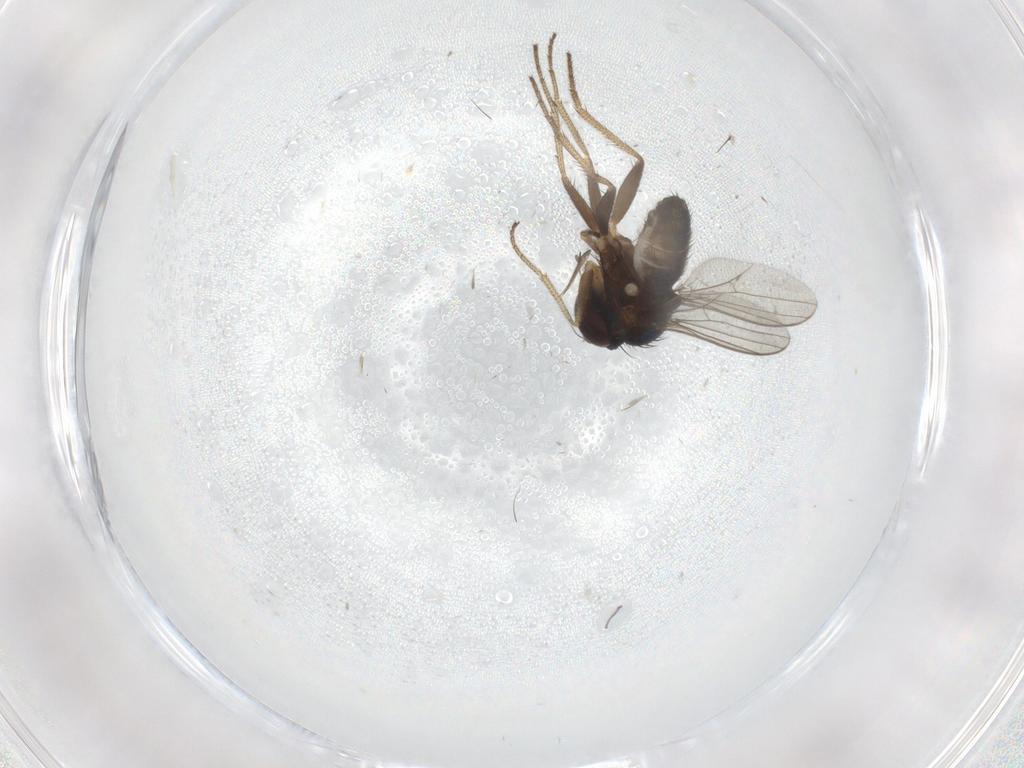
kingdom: Animalia
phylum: Arthropoda
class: Insecta
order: Diptera
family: Dolichopodidae
